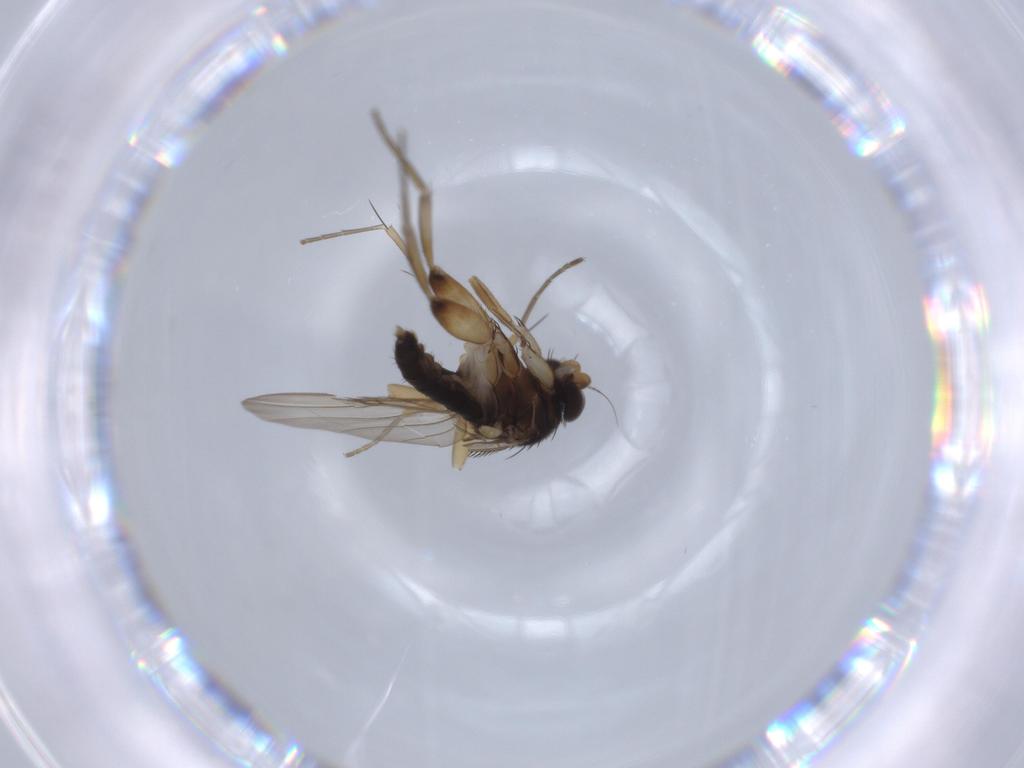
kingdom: Animalia
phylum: Arthropoda
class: Insecta
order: Diptera
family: Phoridae
